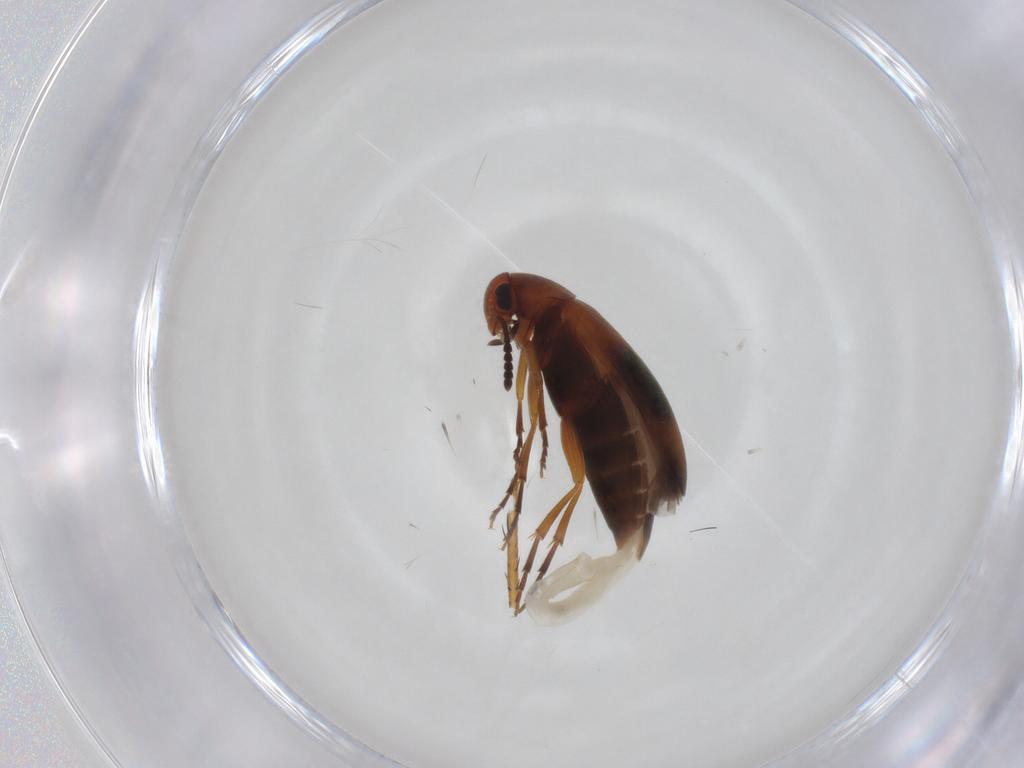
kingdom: Animalia
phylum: Arthropoda
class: Insecta
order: Coleoptera
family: Scraptiidae
